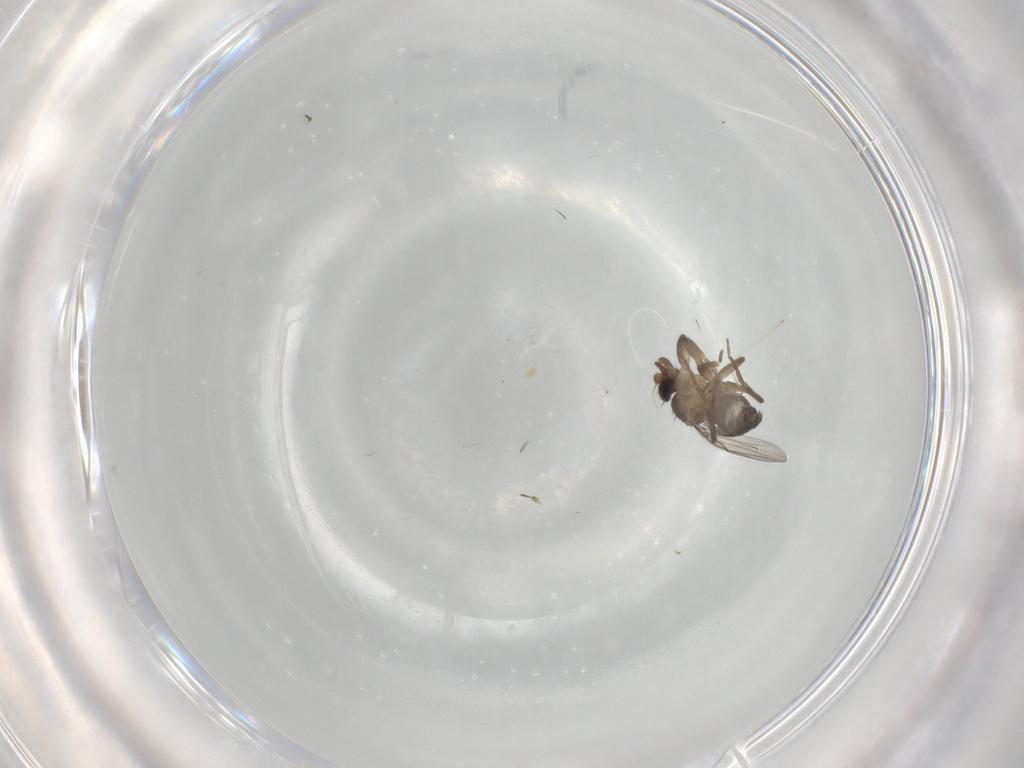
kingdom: Animalia
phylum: Arthropoda
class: Insecta
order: Diptera
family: Phoridae
